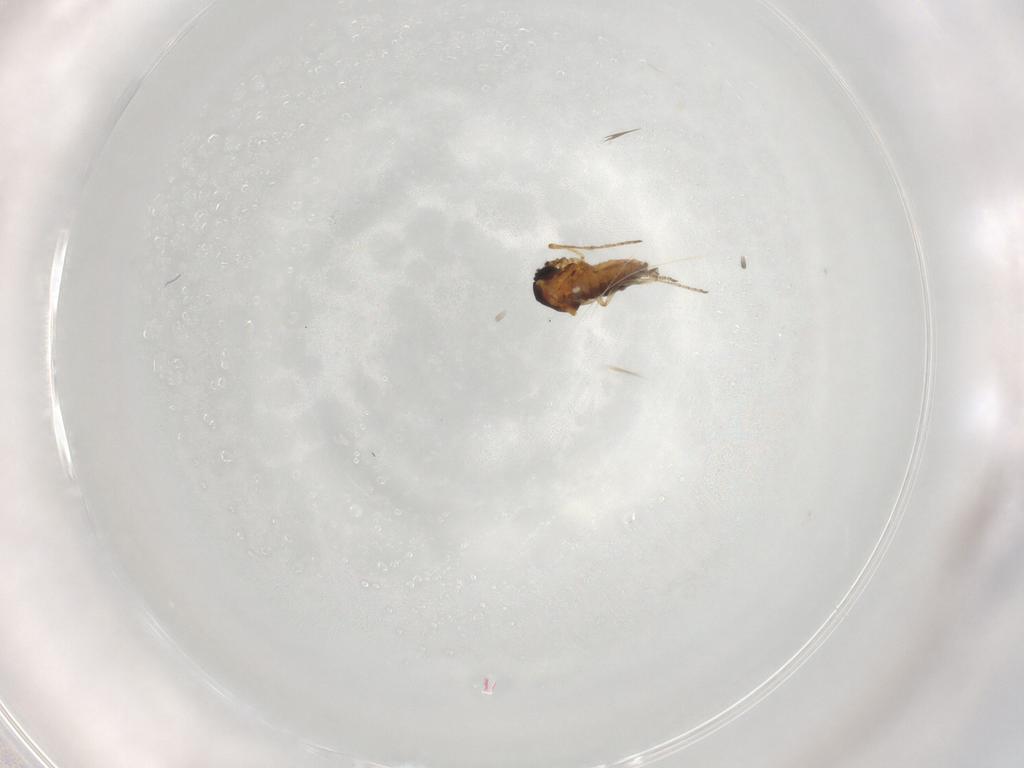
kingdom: Animalia
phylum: Arthropoda
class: Insecta
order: Diptera
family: Ceratopogonidae
